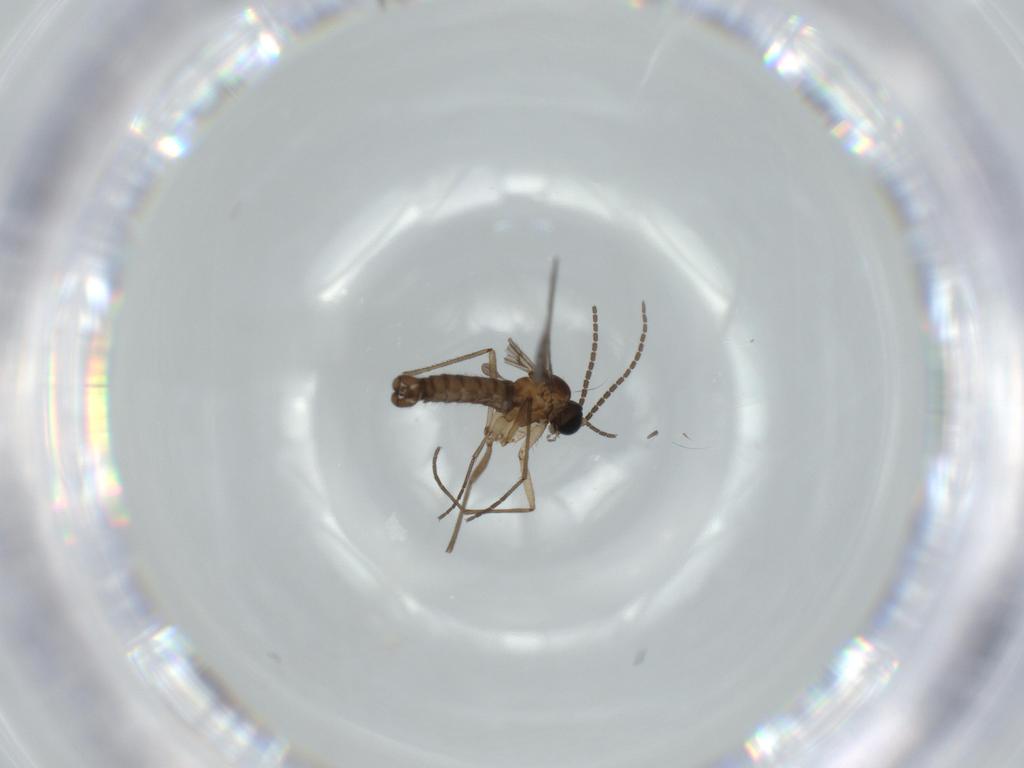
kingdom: Animalia
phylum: Arthropoda
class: Insecta
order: Diptera
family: Sciaridae
